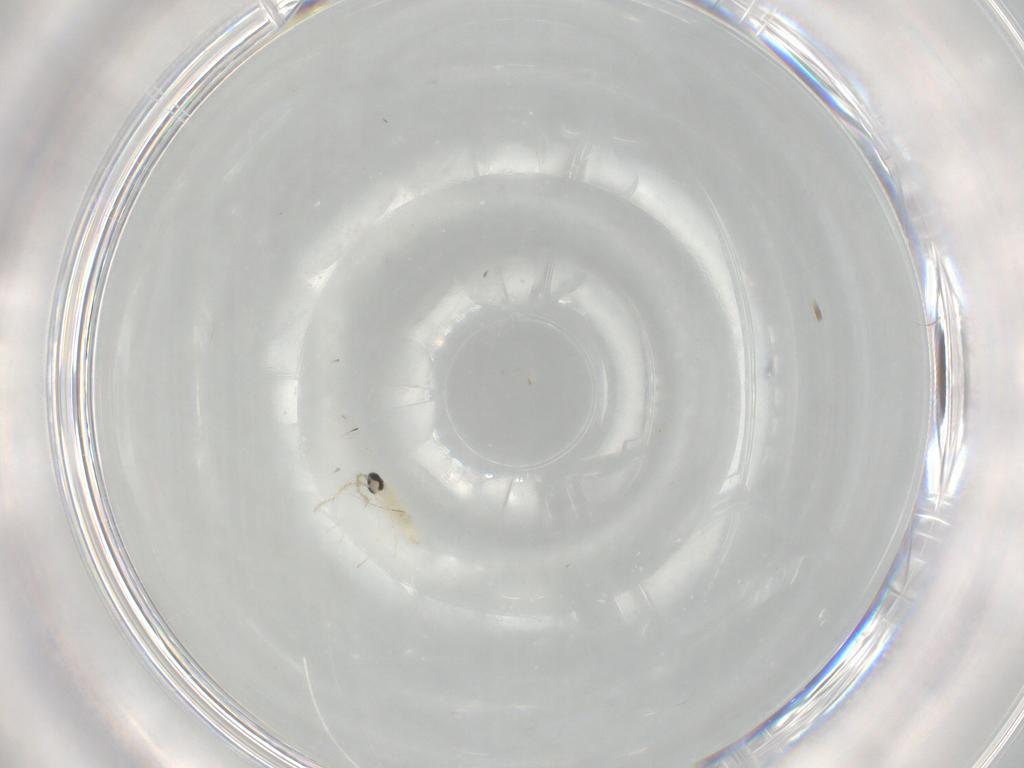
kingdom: Animalia
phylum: Arthropoda
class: Insecta
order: Diptera
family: Cecidomyiidae
